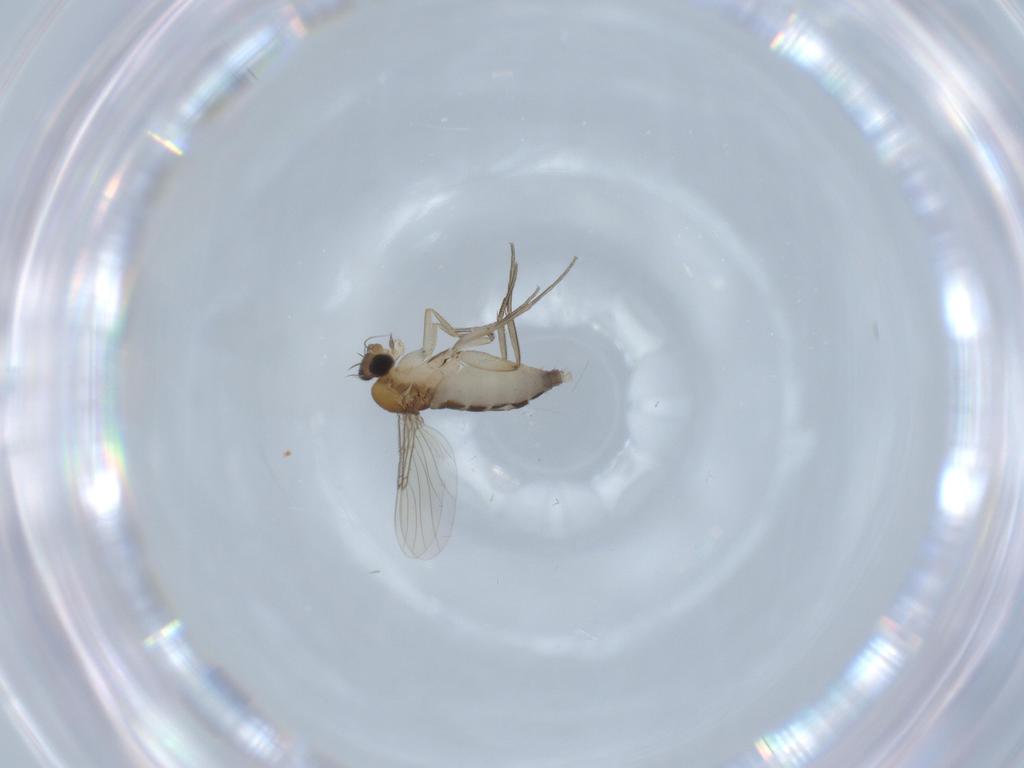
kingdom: Animalia
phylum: Arthropoda
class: Insecta
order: Diptera
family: Phoridae
